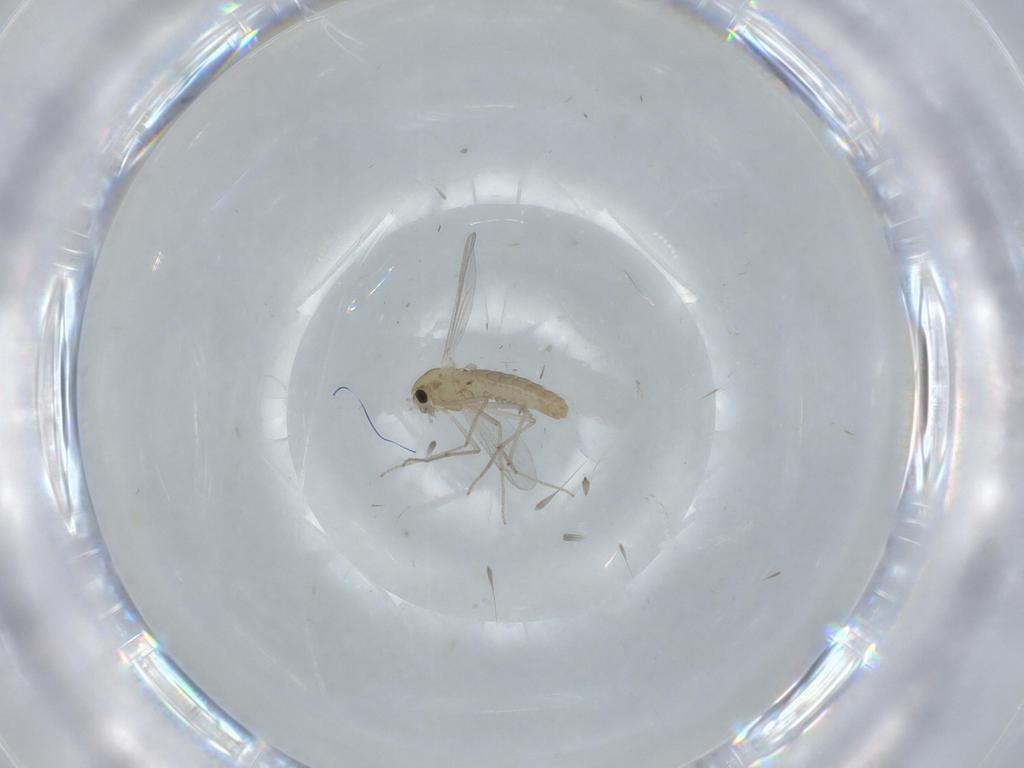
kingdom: Animalia
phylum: Arthropoda
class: Insecta
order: Diptera
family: Chironomidae
